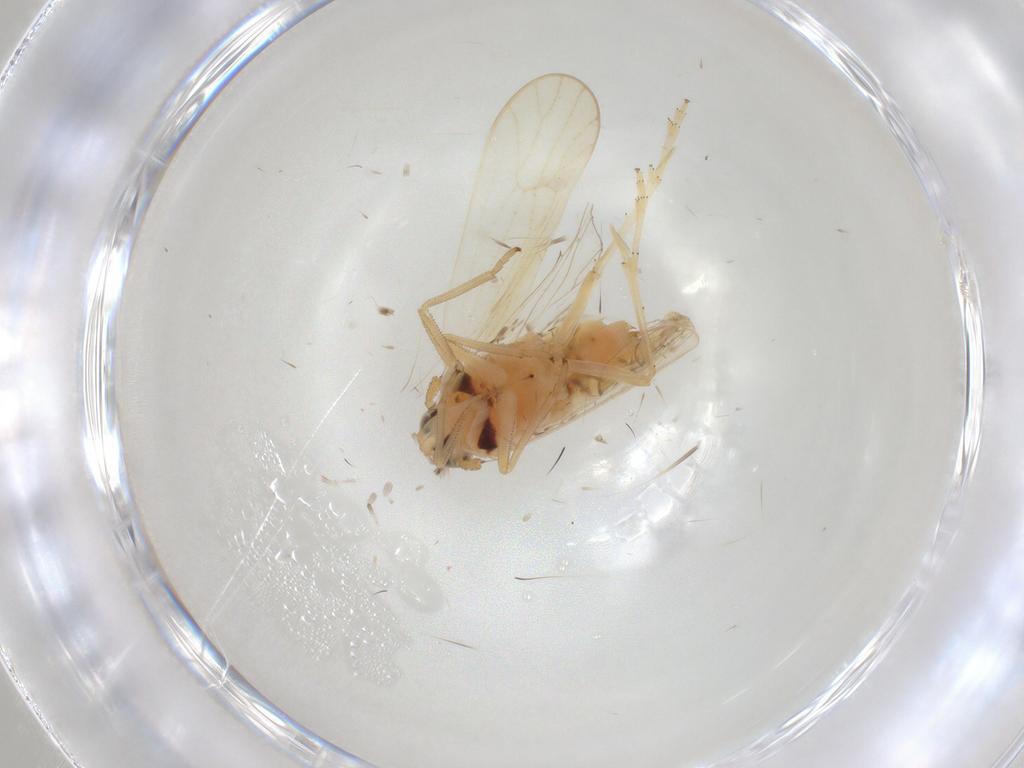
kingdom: Animalia
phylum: Arthropoda
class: Insecta
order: Hemiptera
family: Delphacidae
